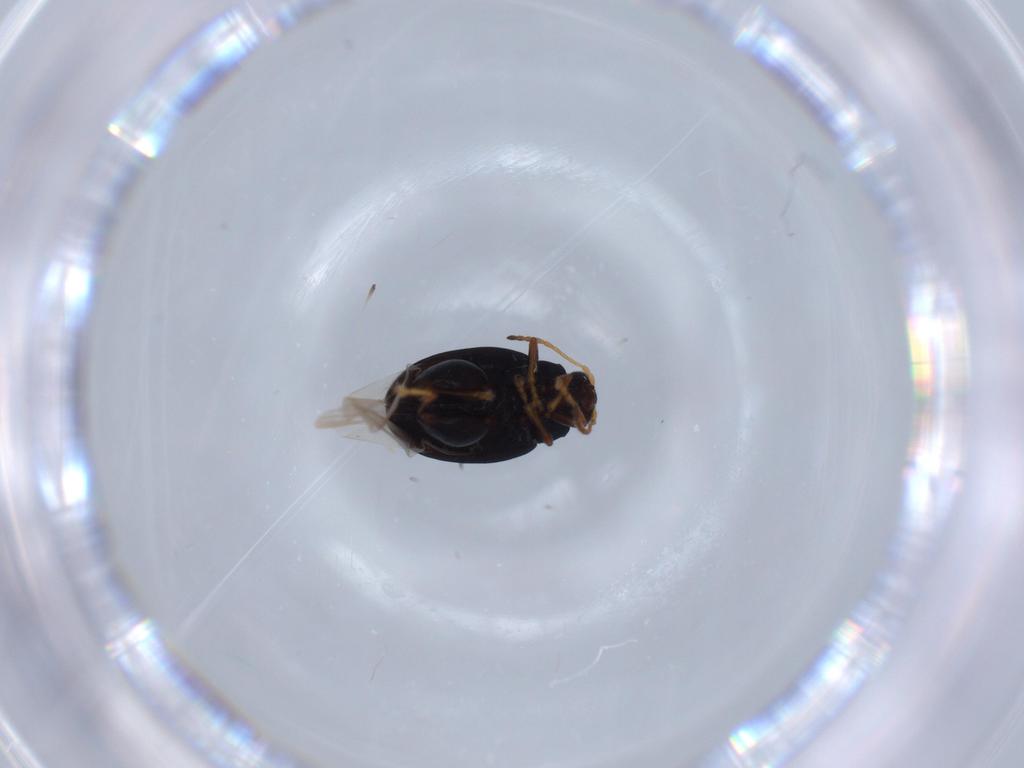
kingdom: Animalia
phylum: Arthropoda
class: Insecta
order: Coleoptera
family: Chrysomelidae
